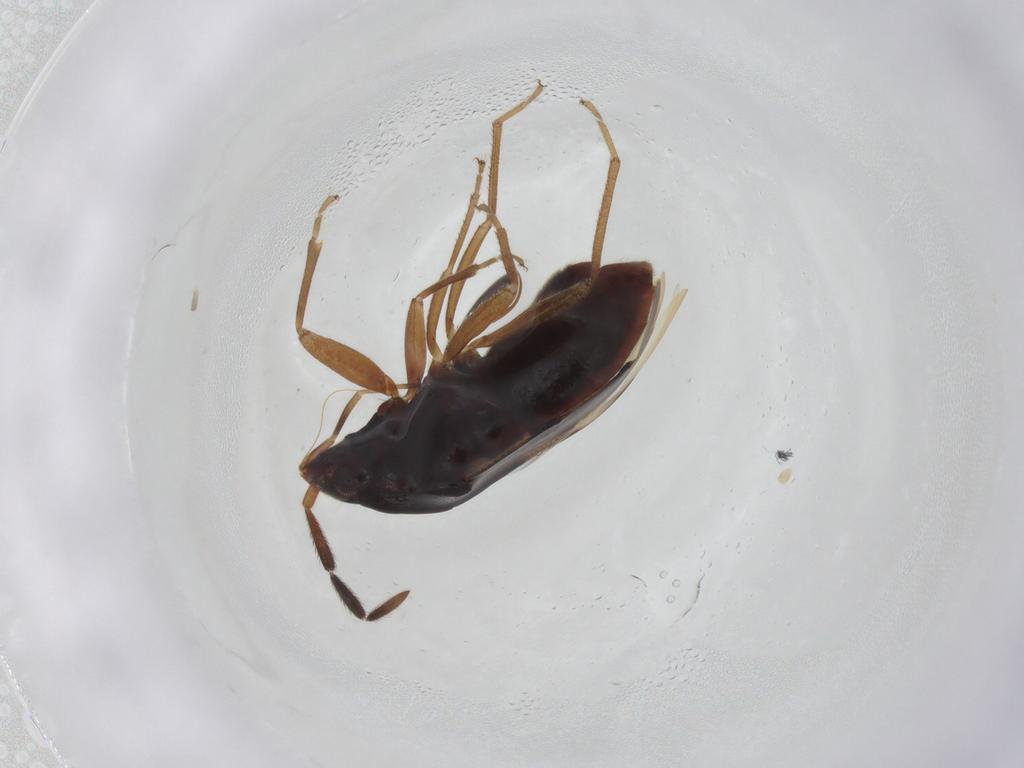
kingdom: Animalia
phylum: Arthropoda
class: Insecta
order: Hemiptera
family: Rhyparochromidae
